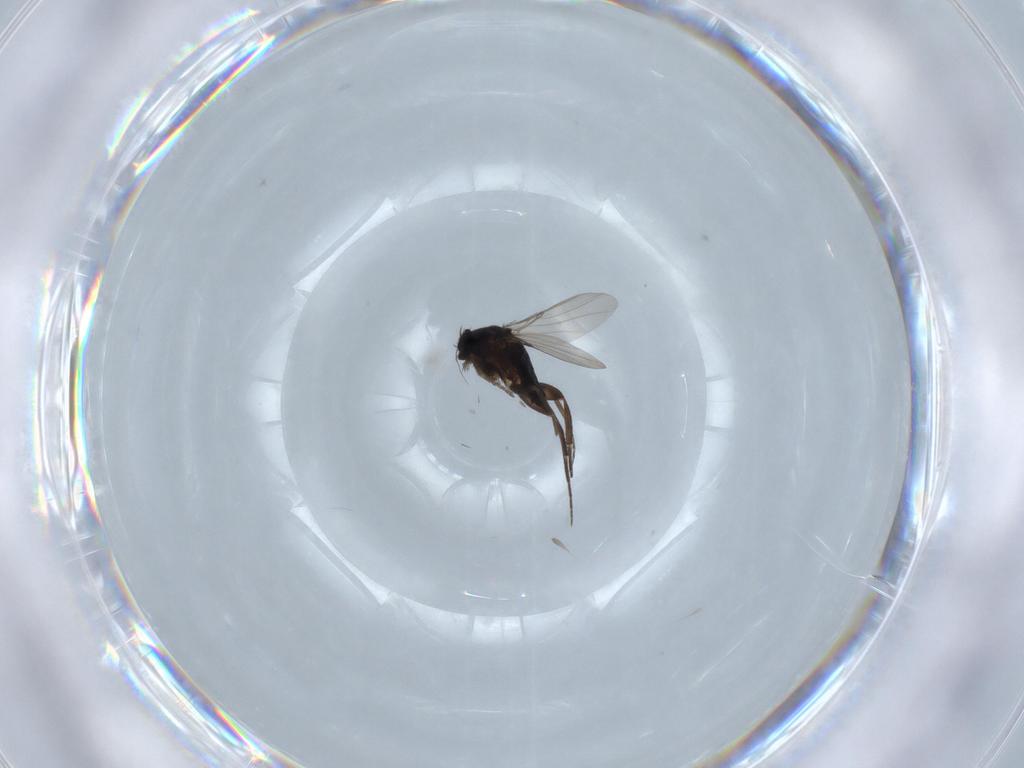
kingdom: Animalia
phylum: Arthropoda
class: Insecta
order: Diptera
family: Phoridae
